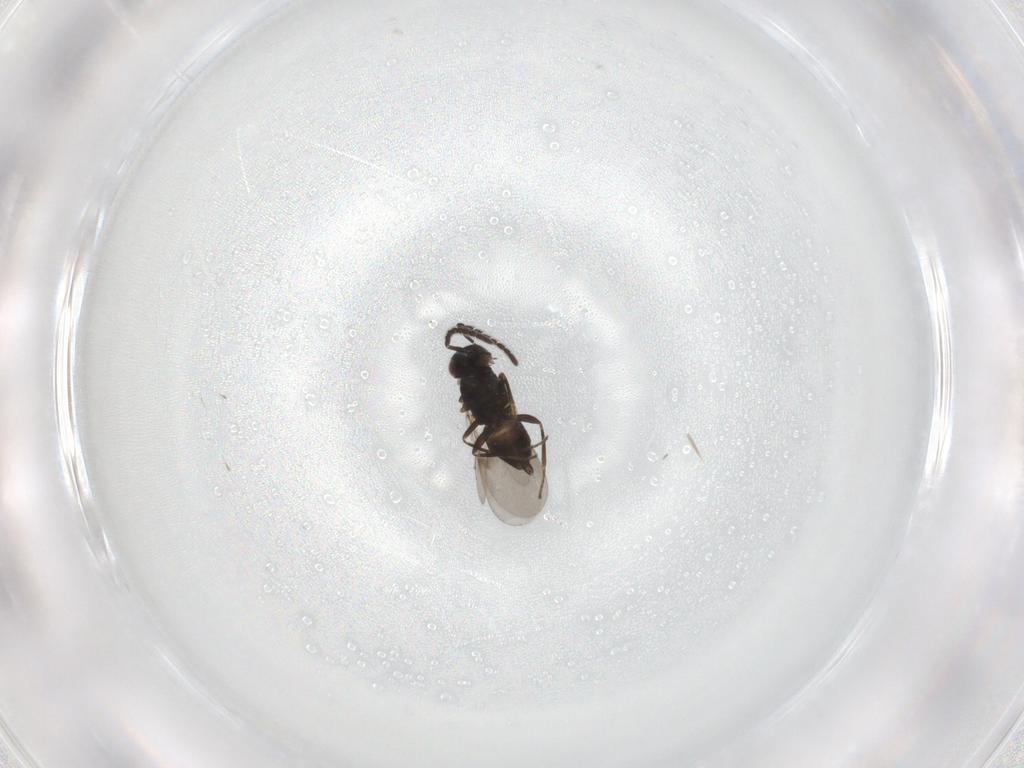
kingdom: Animalia
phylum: Arthropoda
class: Insecta
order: Hymenoptera
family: Encyrtidae
